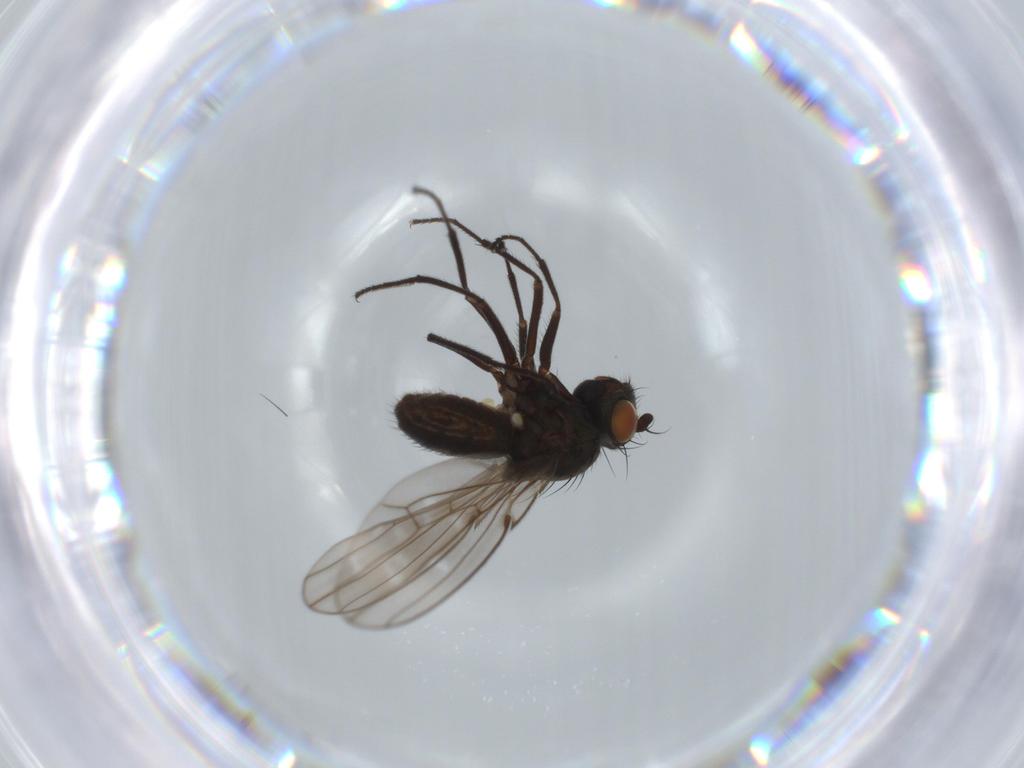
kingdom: Animalia
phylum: Arthropoda
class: Insecta
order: Diptera
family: Ephydridae
